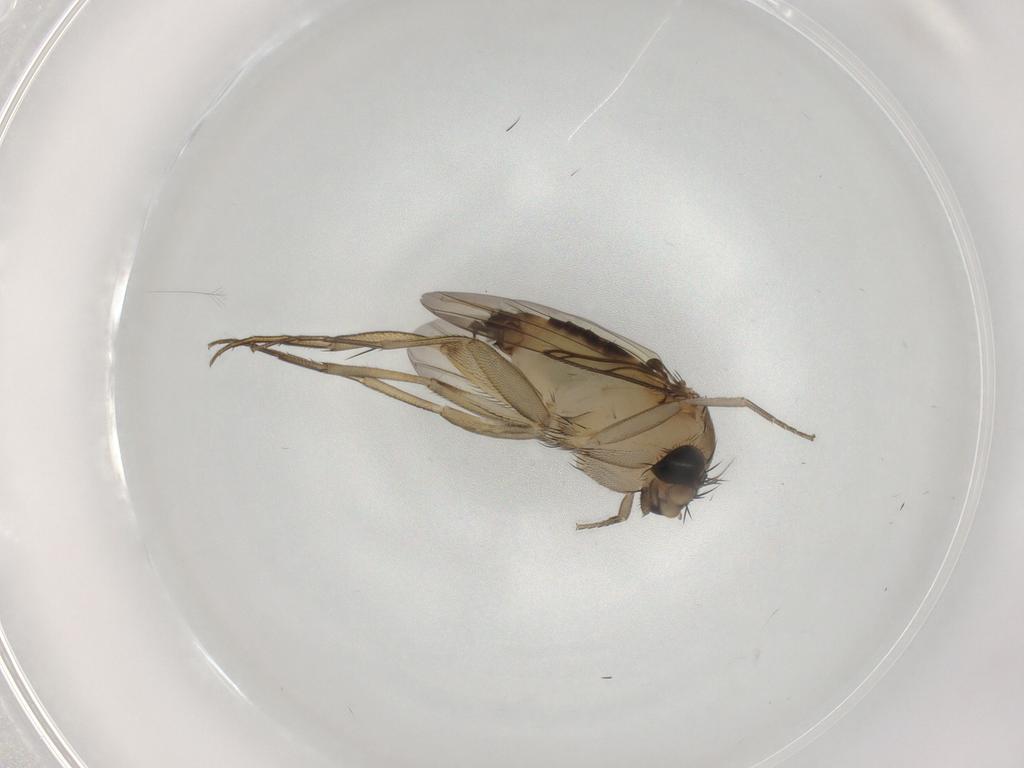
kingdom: Animalia
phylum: Arthropoda
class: Insecta
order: Diptera
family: Phoridae
